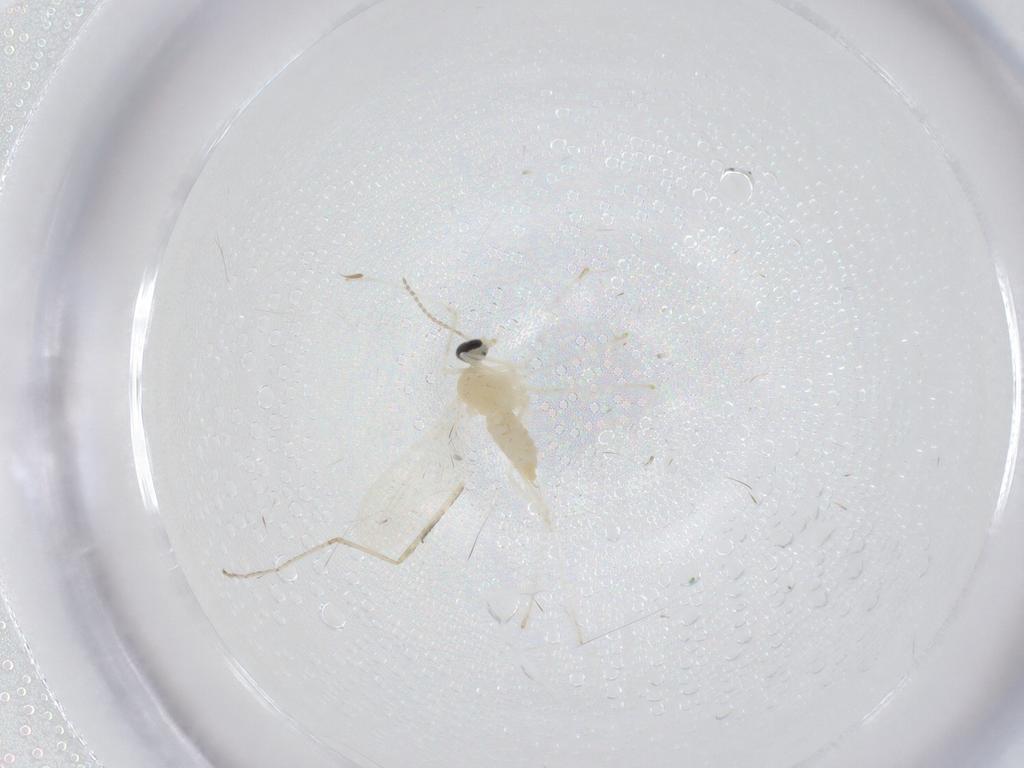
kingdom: Animalia
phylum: Arthropoda
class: Insecta
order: Diptera
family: Cecidomyiidae
